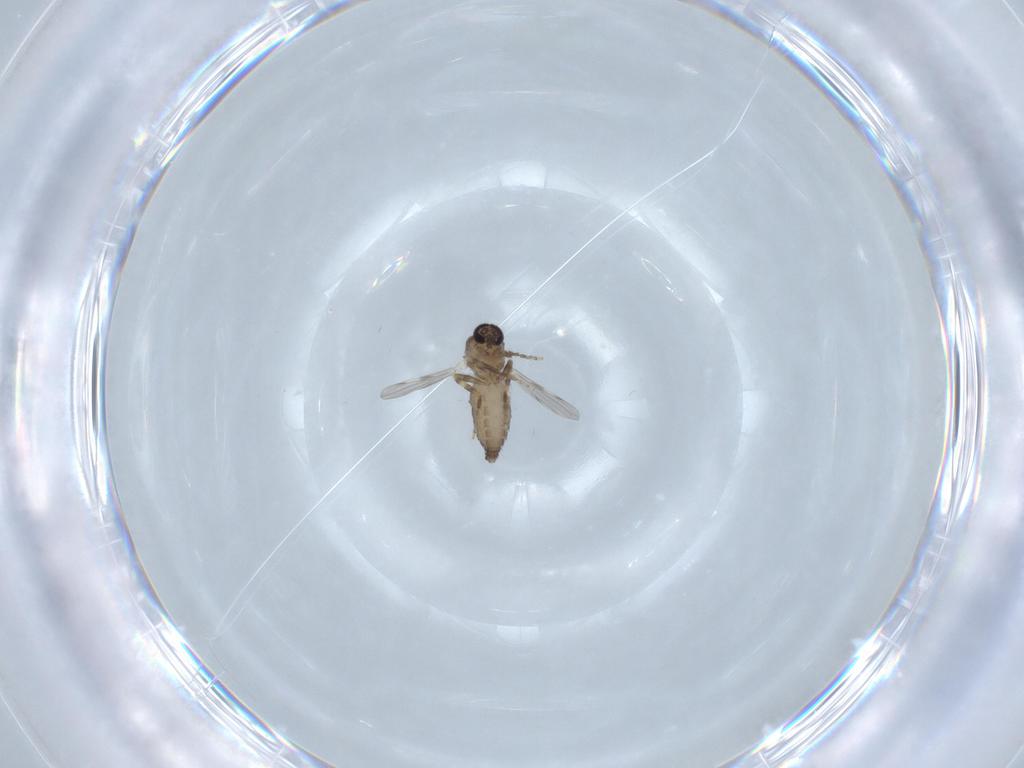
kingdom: Animalia
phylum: Arthropoda
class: Insecta
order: Diptera
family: Ceratopogonidae
